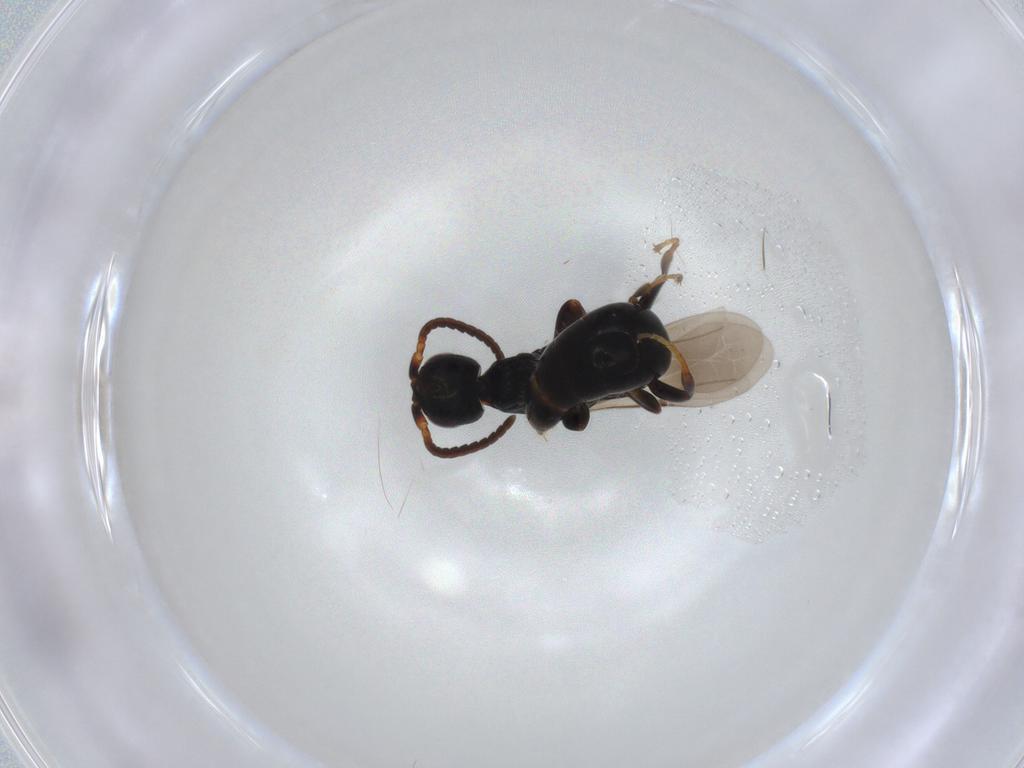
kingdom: Animalia
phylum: Arthropoda
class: Insecta
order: Hymenoptera
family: Bethylidae
